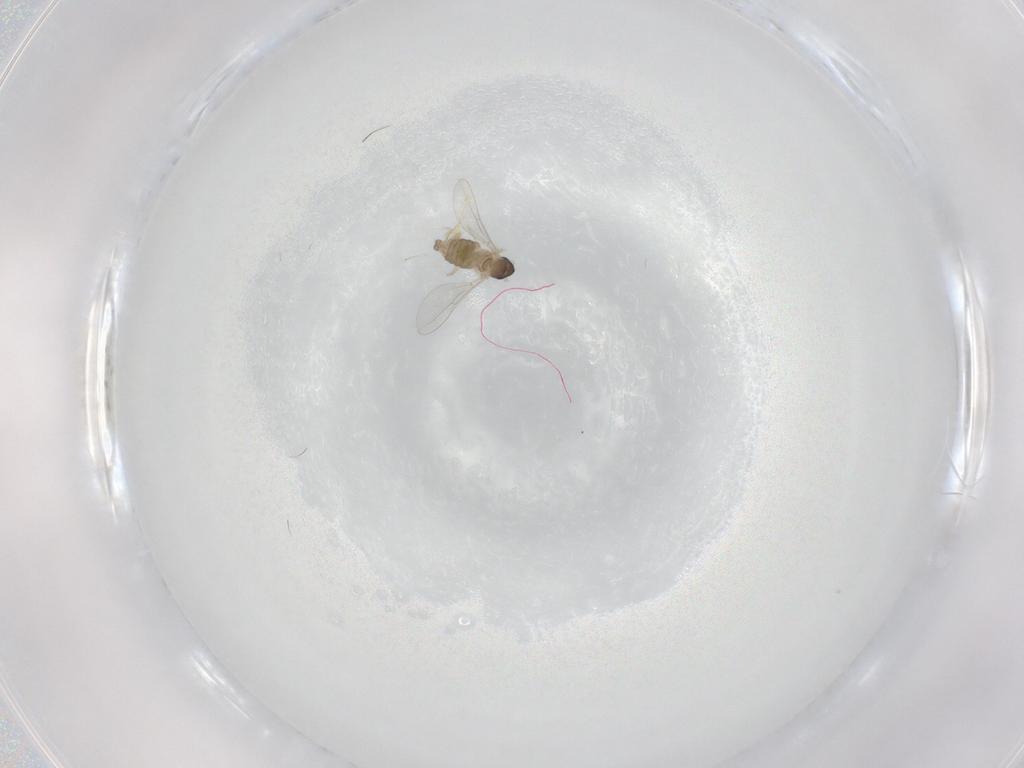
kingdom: Animalia
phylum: Arthropoda
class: Insecta
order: Diptera
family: Cecidomyiidae
